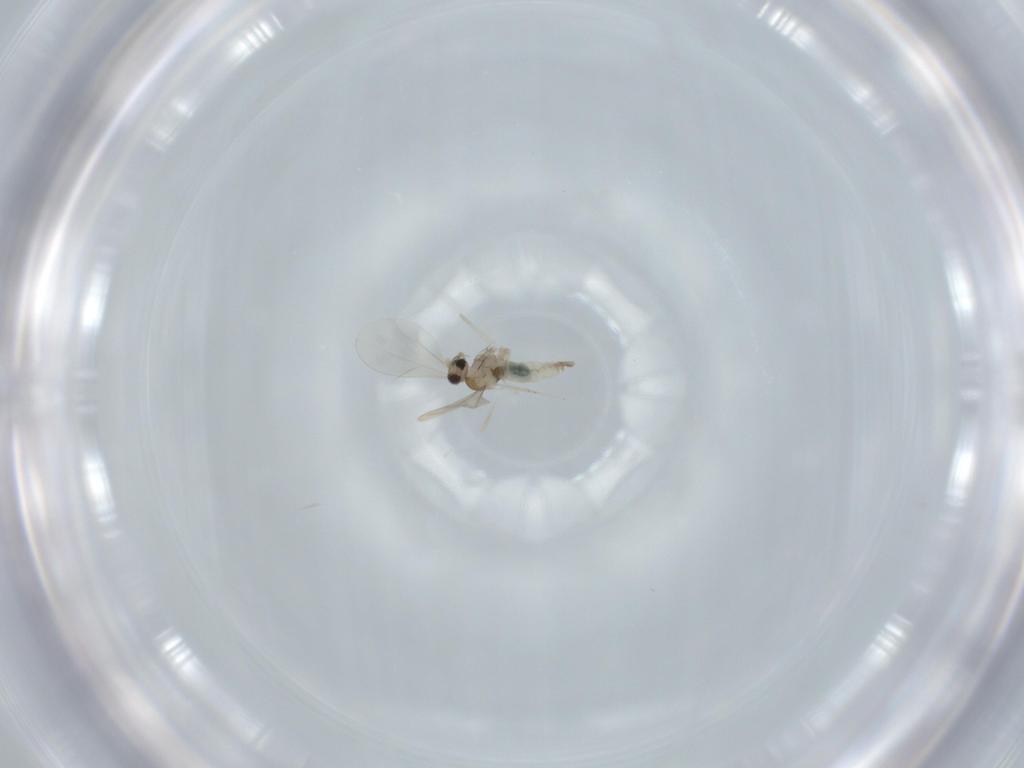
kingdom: Animalia
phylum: Arthropoda
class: Insecta
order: Diptera
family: Cecidomyiidae
